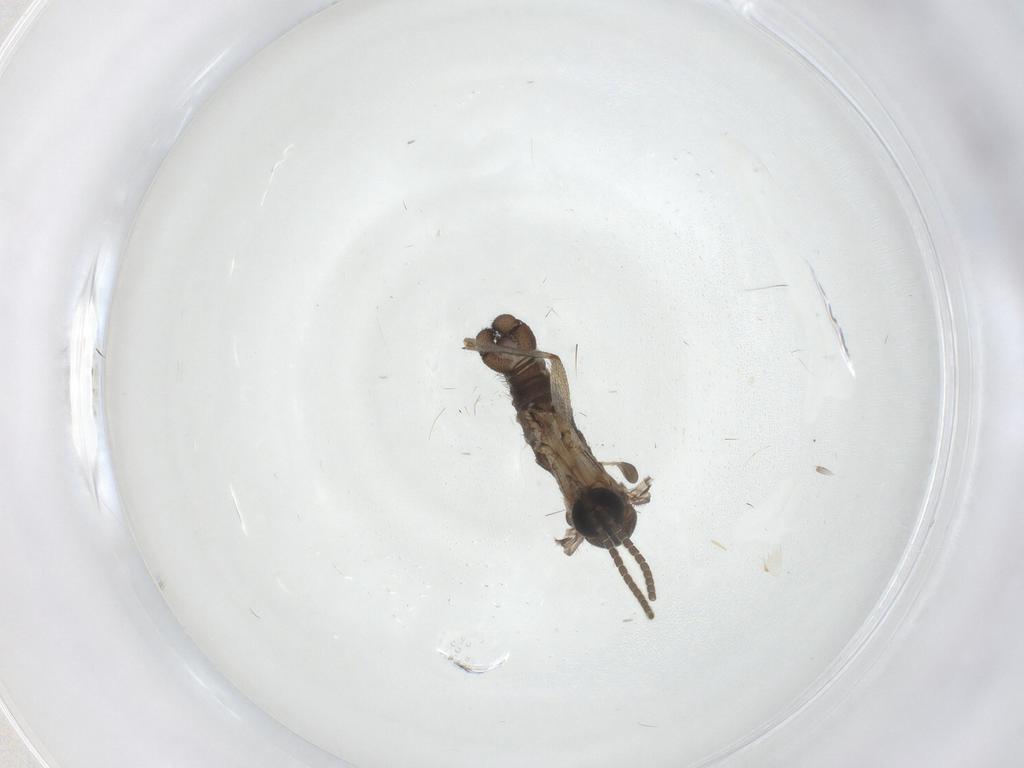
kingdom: Animalia
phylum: Arthropoda
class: Insecta
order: Diptera
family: Sciaridae
